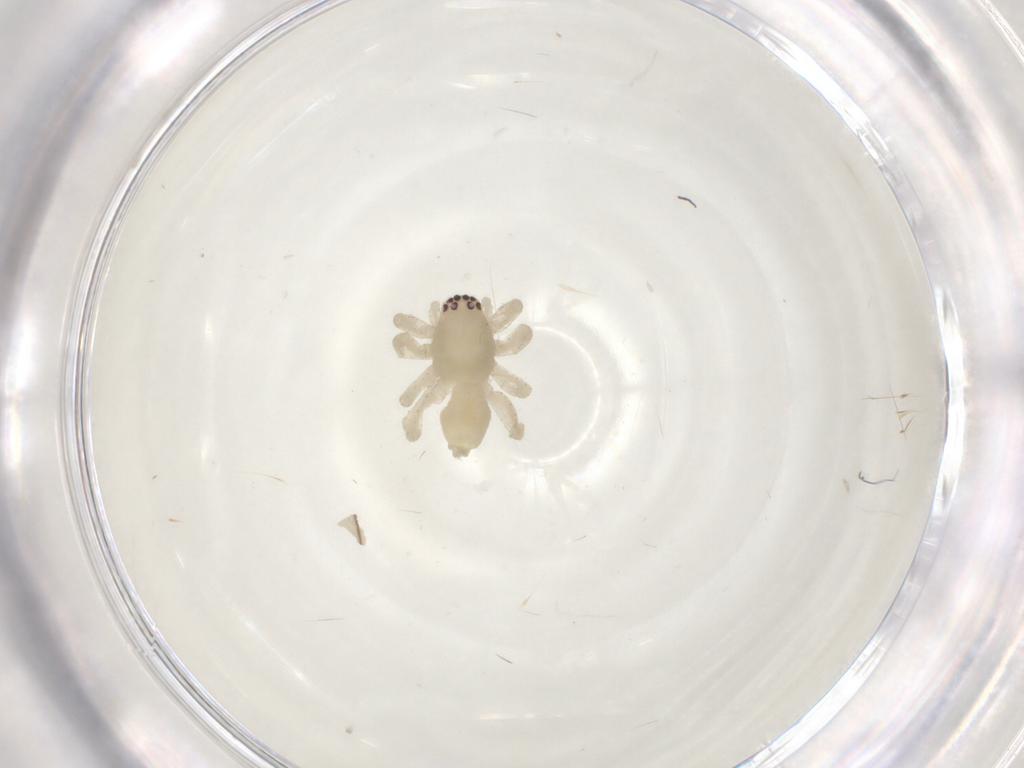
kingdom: Animalia
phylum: Arthropoda
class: Arachnida
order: Araneae
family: Clubionidae
